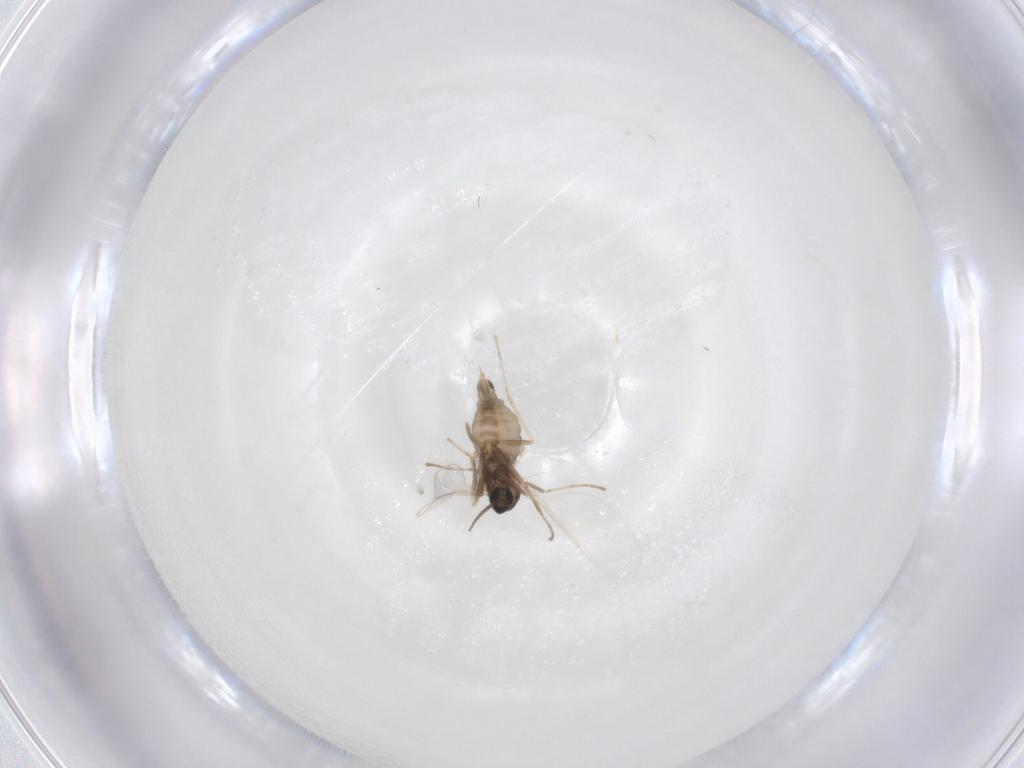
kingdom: Animalia
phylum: Arthropoda
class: Insecta
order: Diptera
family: Cecidomyiidae
